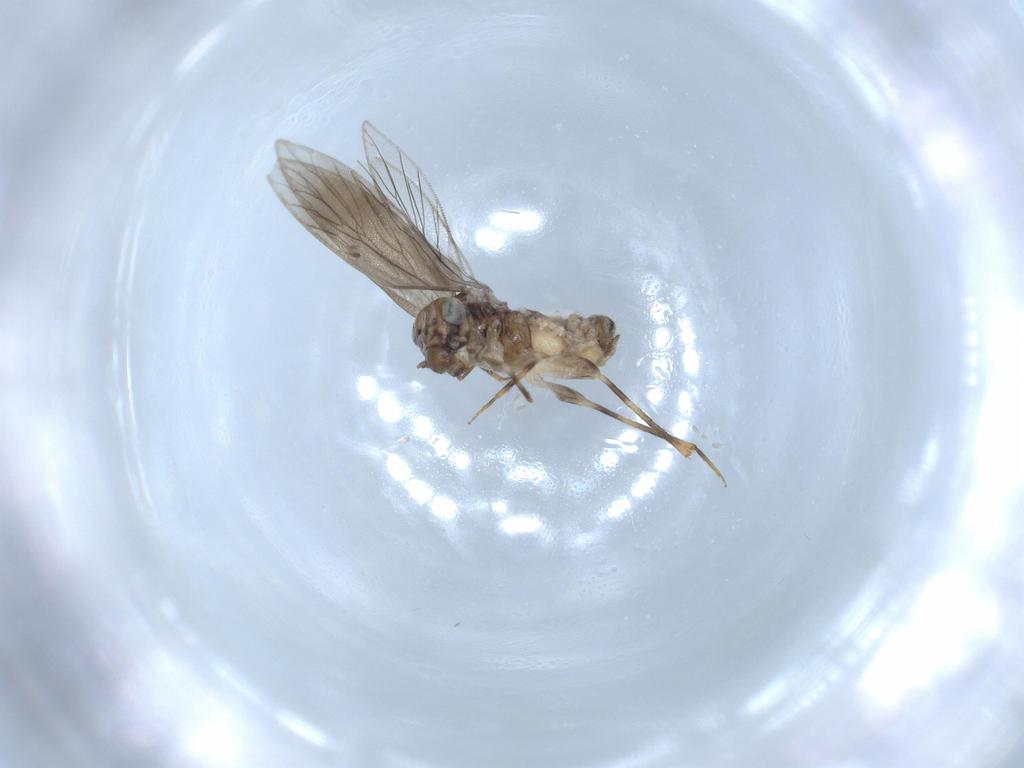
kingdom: Animalia
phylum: Arthropoda
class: Insecta
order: Psocodea
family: Lepidopsocidae
